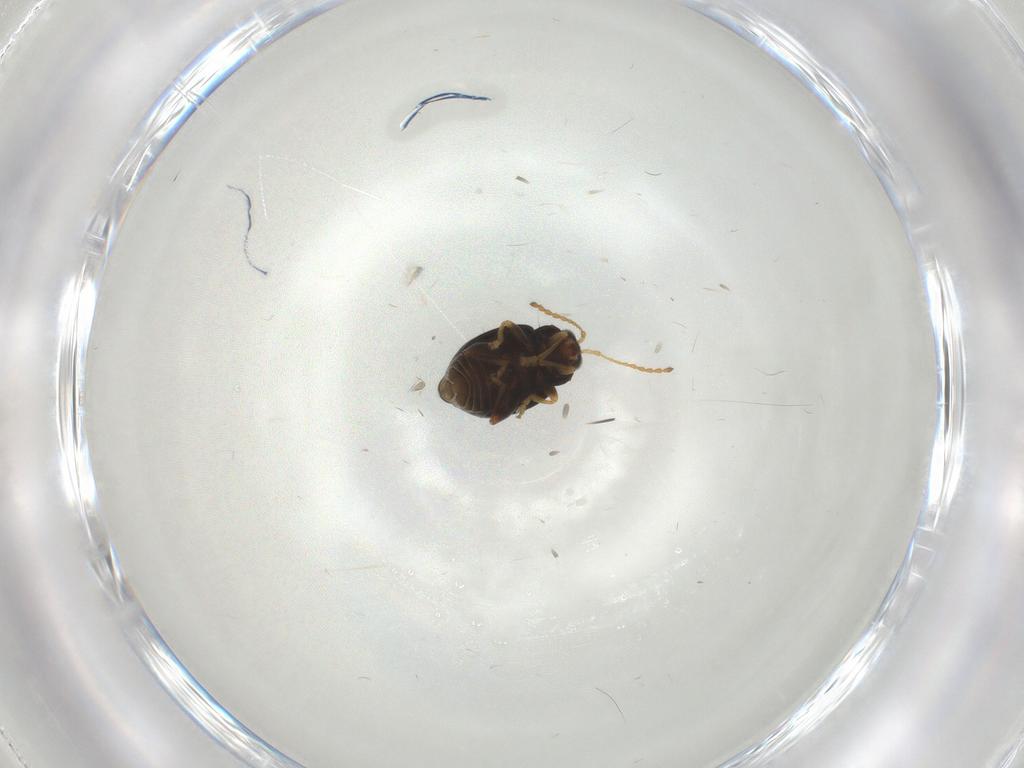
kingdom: Animalia
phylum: Arthropoda
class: Insecta
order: Coleoptera
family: Chrysomelidae
